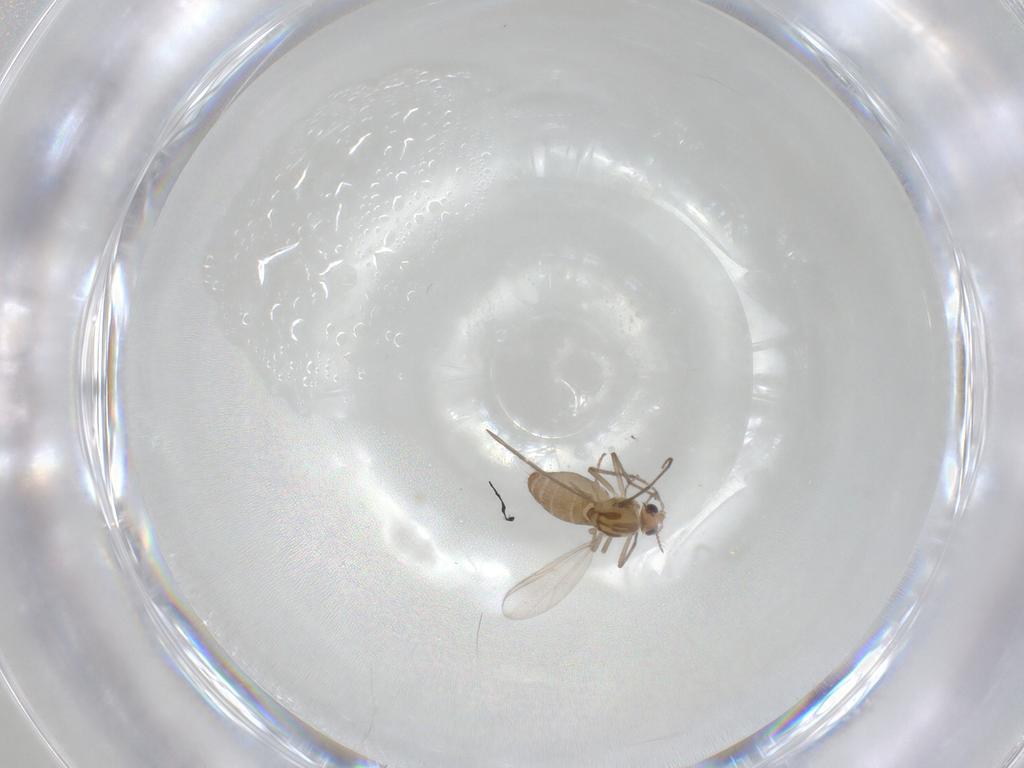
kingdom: Animalia
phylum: Arthropoda
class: Insecta
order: Diptera
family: Chironomidae
